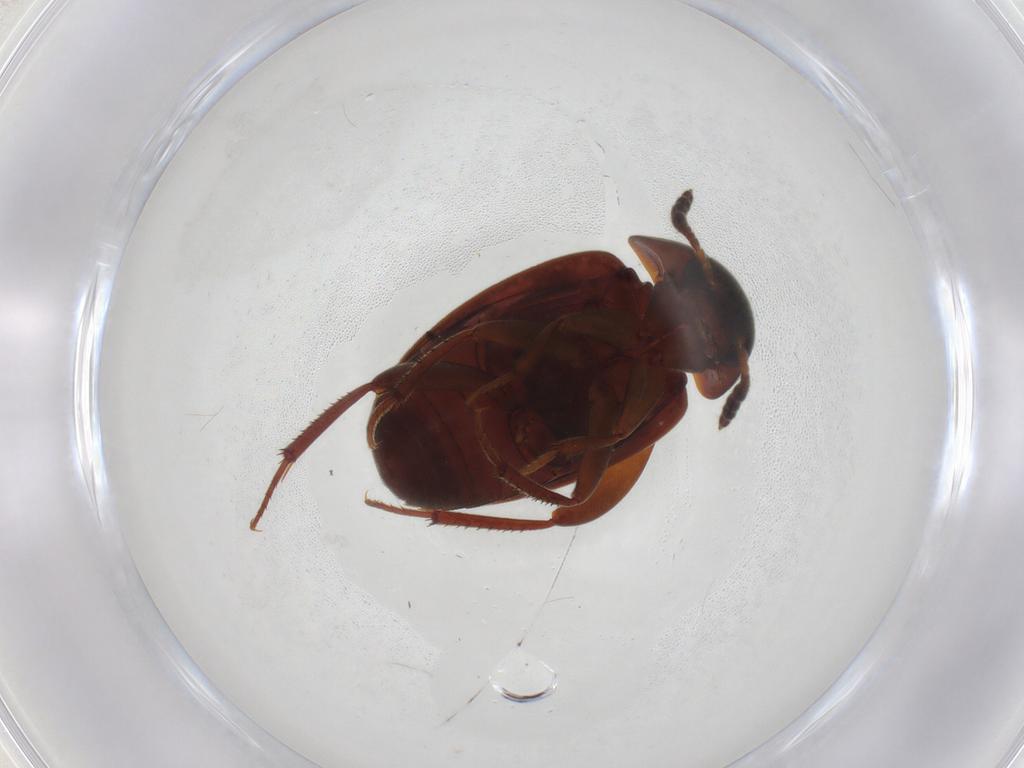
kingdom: Animalia
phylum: Arthropoda
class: Insecta
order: Coleoptera
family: Leiodidae
